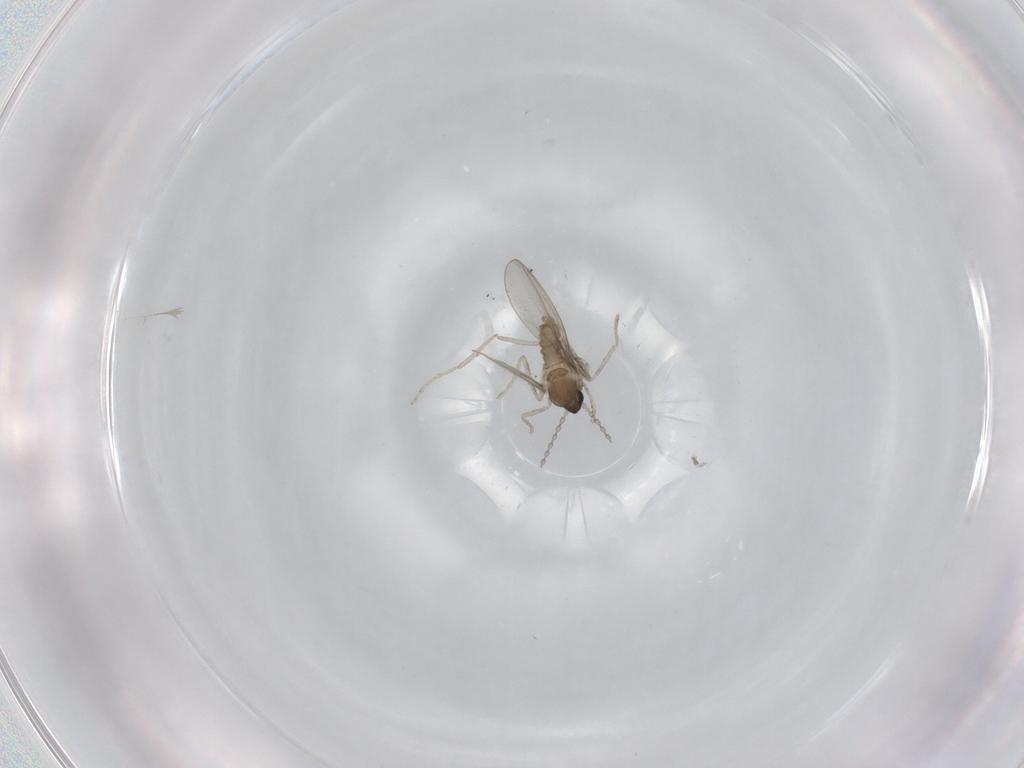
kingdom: Animalia
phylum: Arthropoda
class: Insecta
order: Diptera
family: Cecidomyiidae
